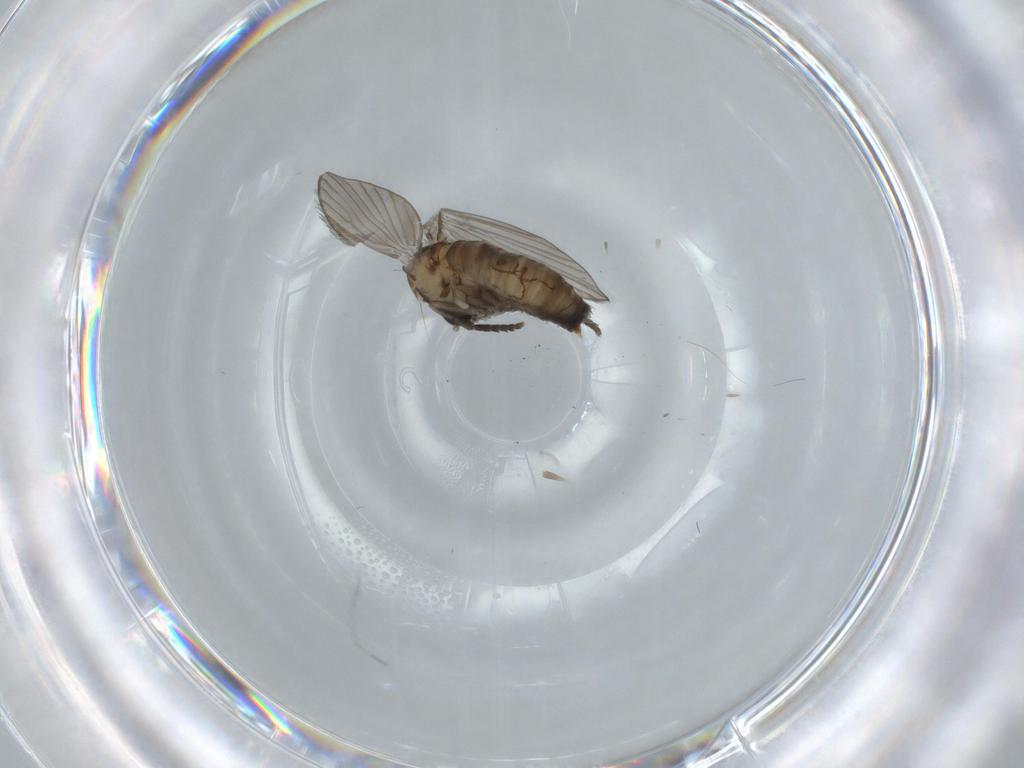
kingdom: Animalia
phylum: Arthropoda
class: Insecta
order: Diptera
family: Psychodidae
